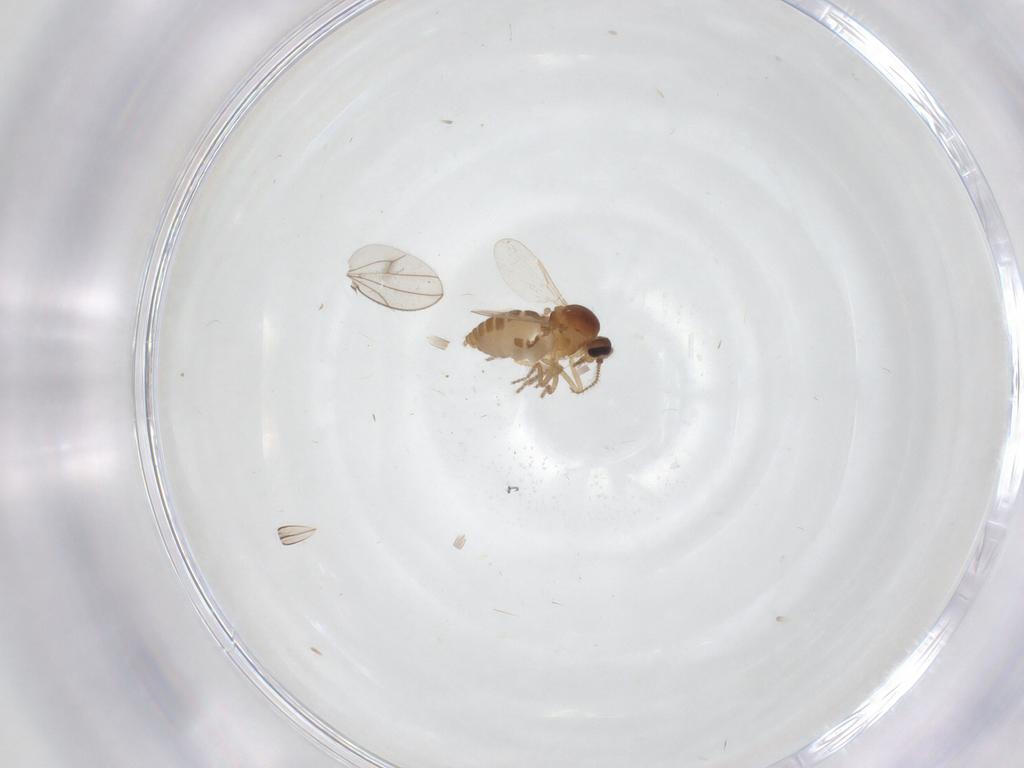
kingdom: Animalia
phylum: Arthropoda
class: Insecta
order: Diptera
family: Ceratopogonidae
